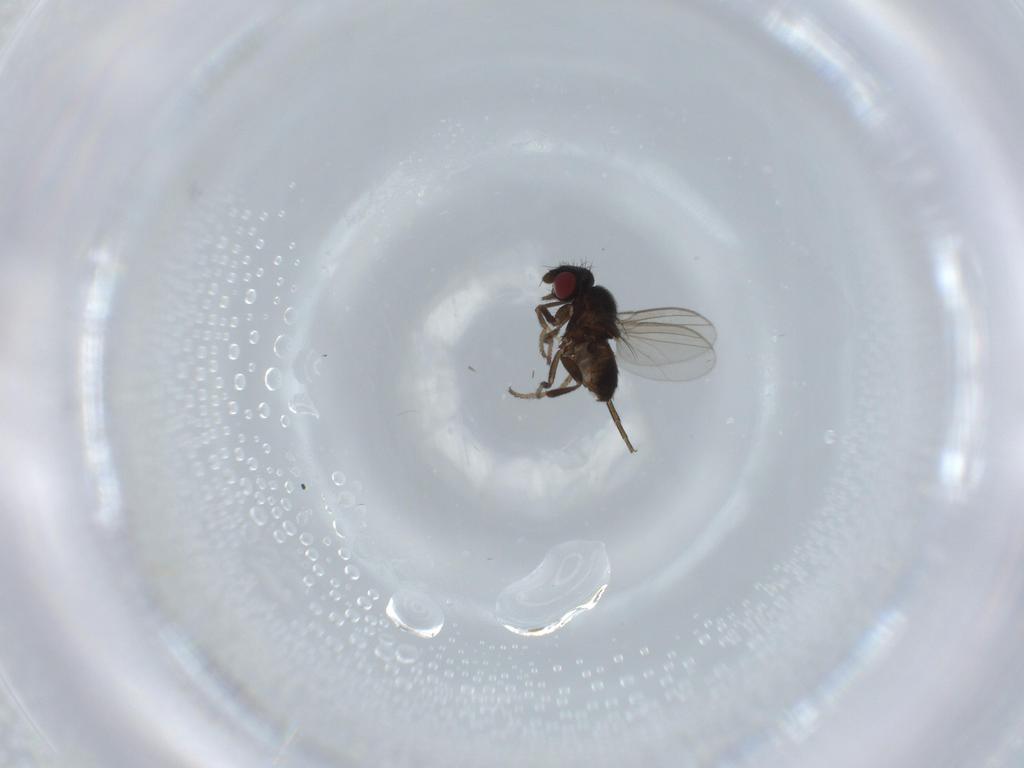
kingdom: Animalia
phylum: Arthropoda
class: Insecta
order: Diptera
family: Milichiidae
